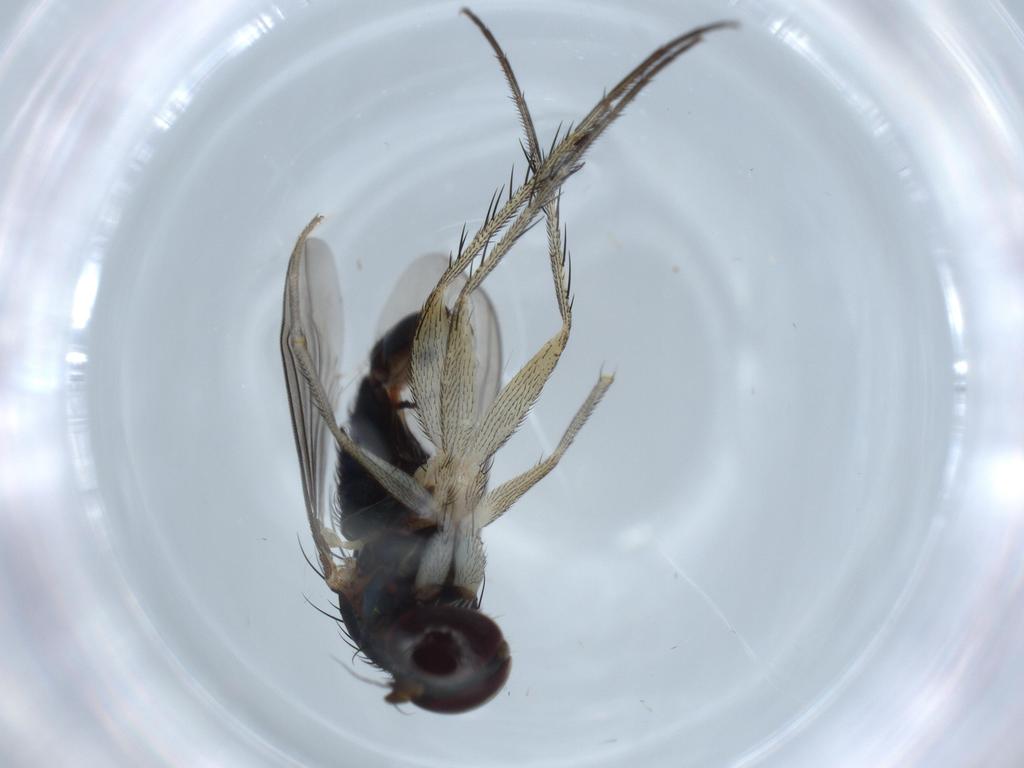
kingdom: Animalia
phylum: Arthropoda
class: Insecta
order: Diptera
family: Dolichopodidae
